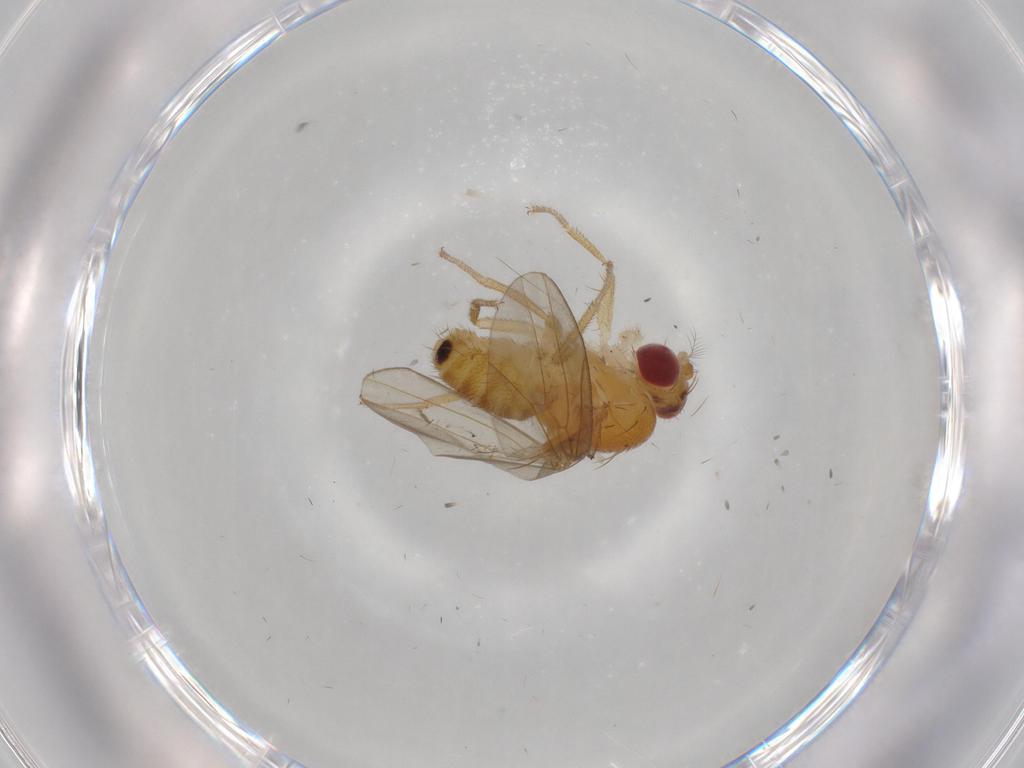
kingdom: Animalia
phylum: Arthropoda
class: Insecta
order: Diptera
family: Drosophilidae
